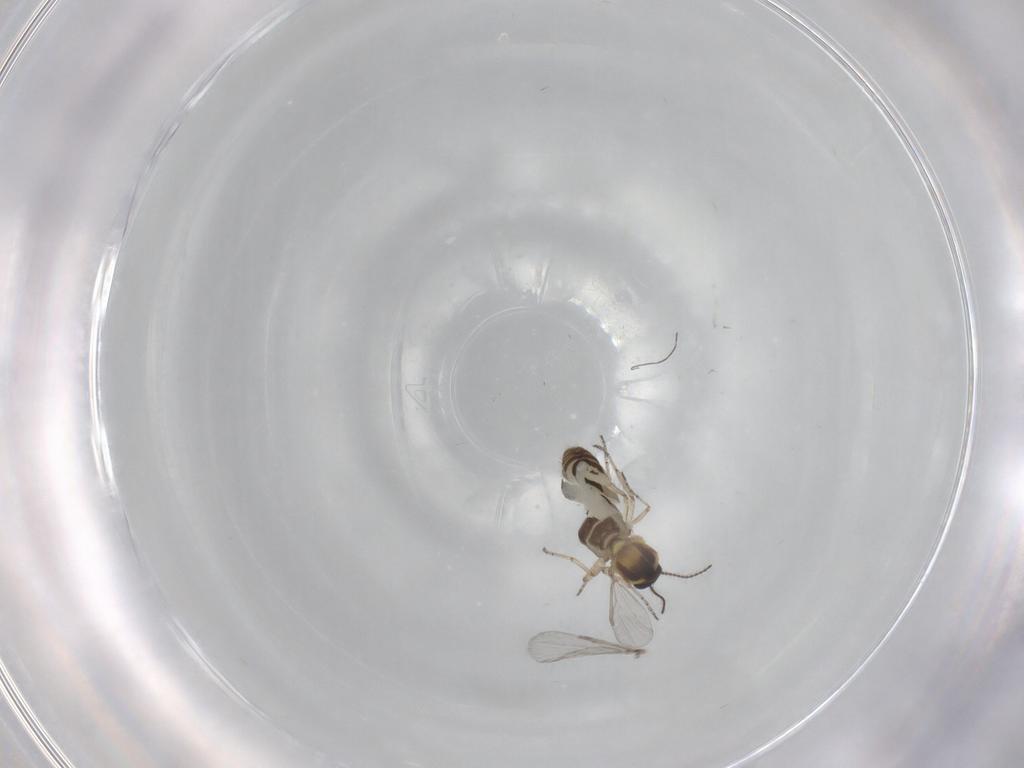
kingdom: Animalia
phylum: Arthropoda
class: Insecta
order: Diptera
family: Ceratopogonidae
